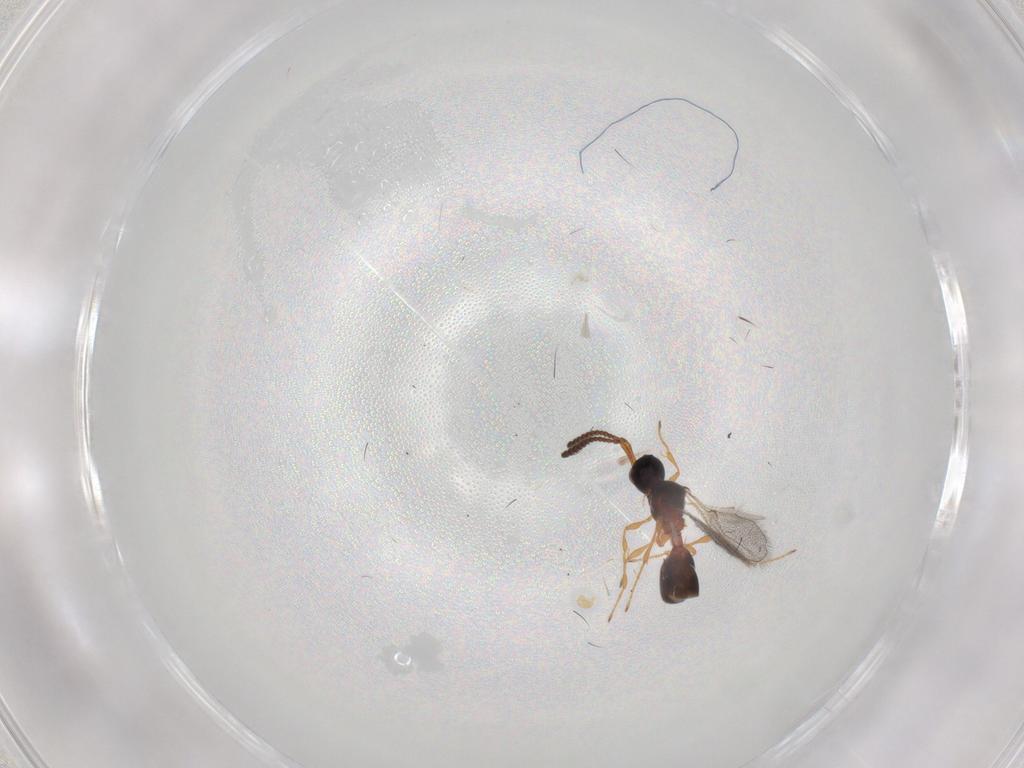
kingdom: Animalia
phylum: Arthropoda
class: Insecta
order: Hymenoptera
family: Diapriidae
